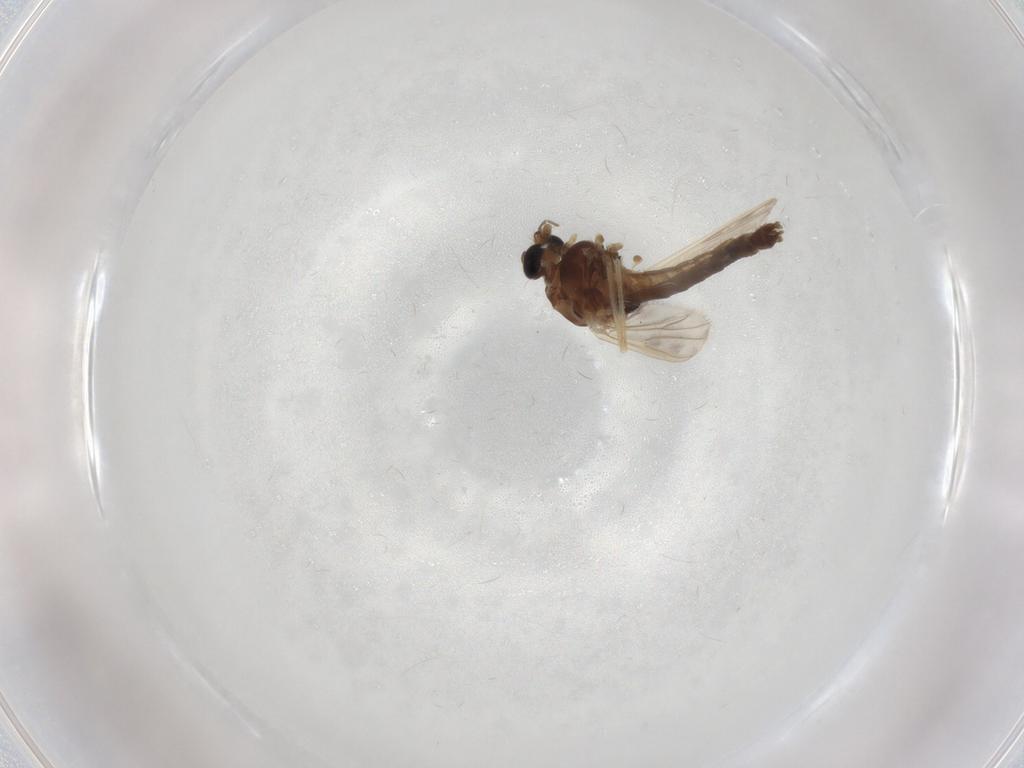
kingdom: Animalia
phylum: Arthropoda
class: Insecta
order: Diptera
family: Chironomidae
